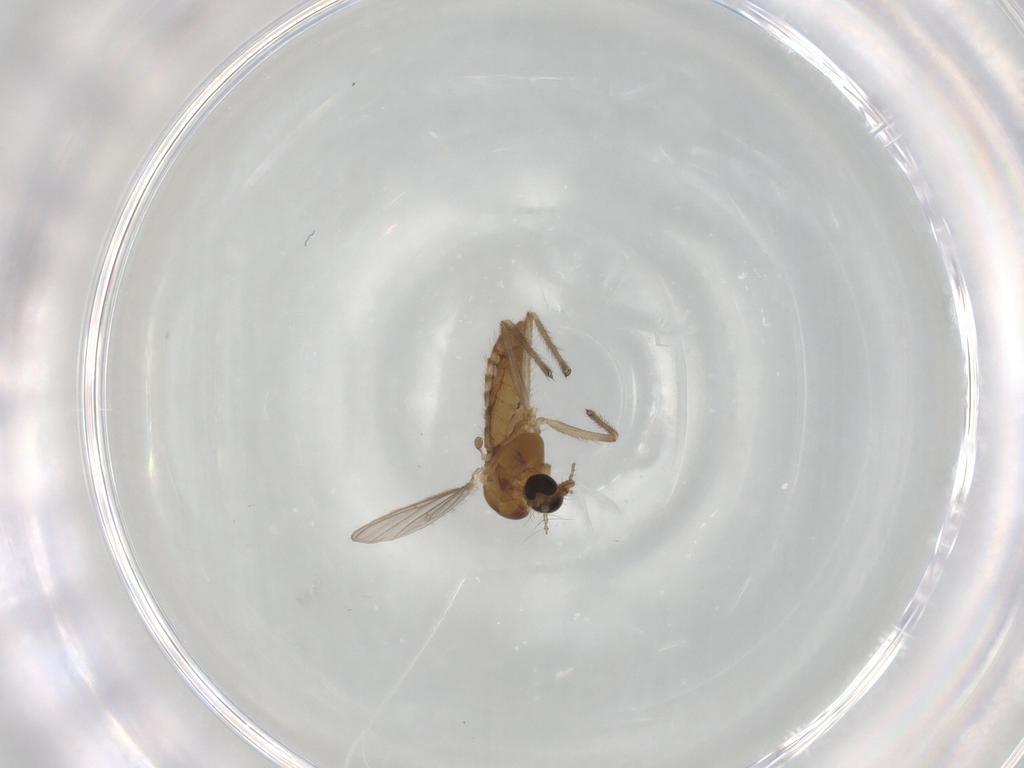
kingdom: Animalia
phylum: Arthropoda
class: Insecta
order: Diptera
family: Chironomidae
